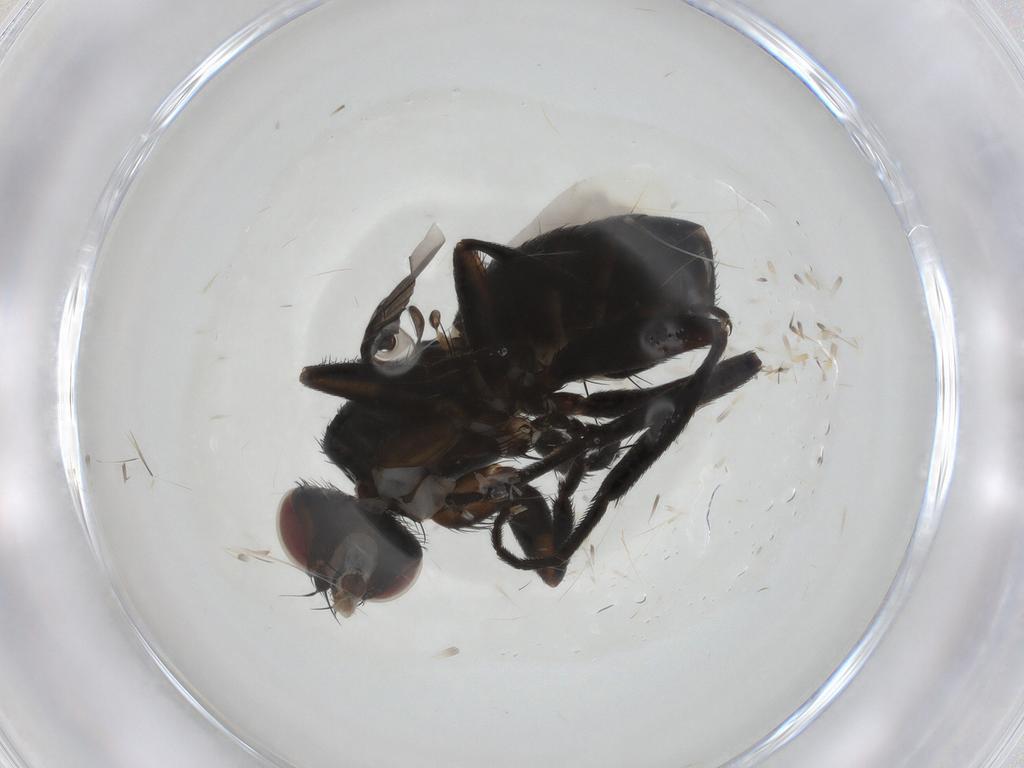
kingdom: Animalia
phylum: Arthropoda
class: Insecta
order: Diptera
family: Tachinidae
